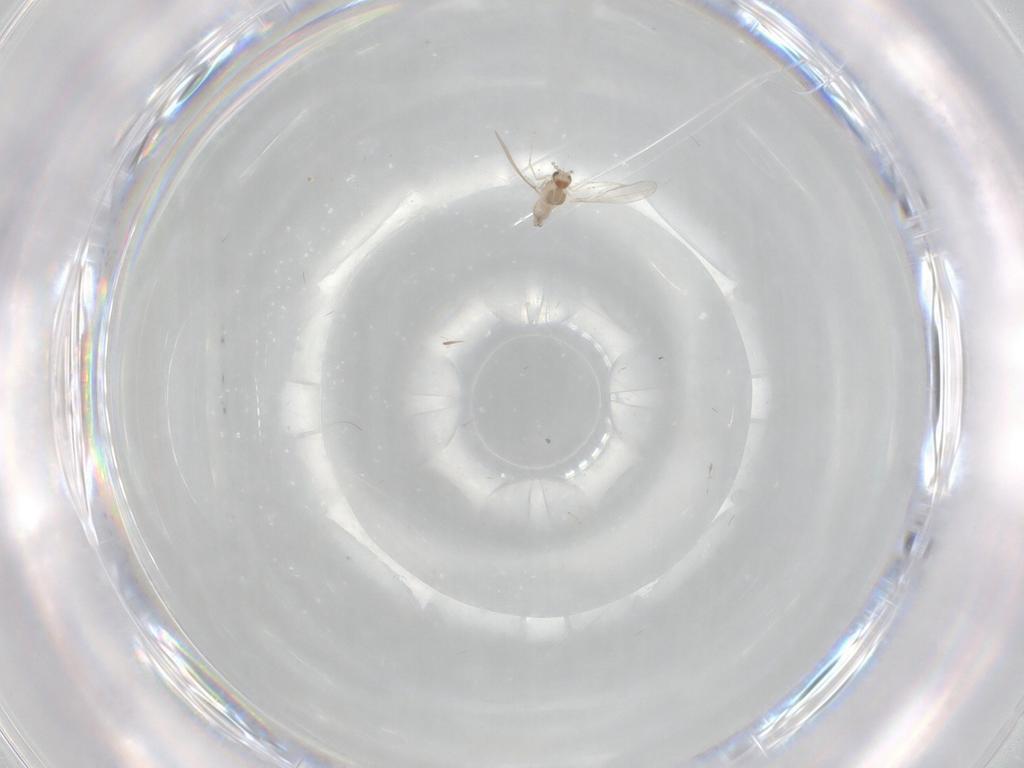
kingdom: Animalia
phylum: Arthropoda
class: Insecta
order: Diptera
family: Cecidomyiidae
